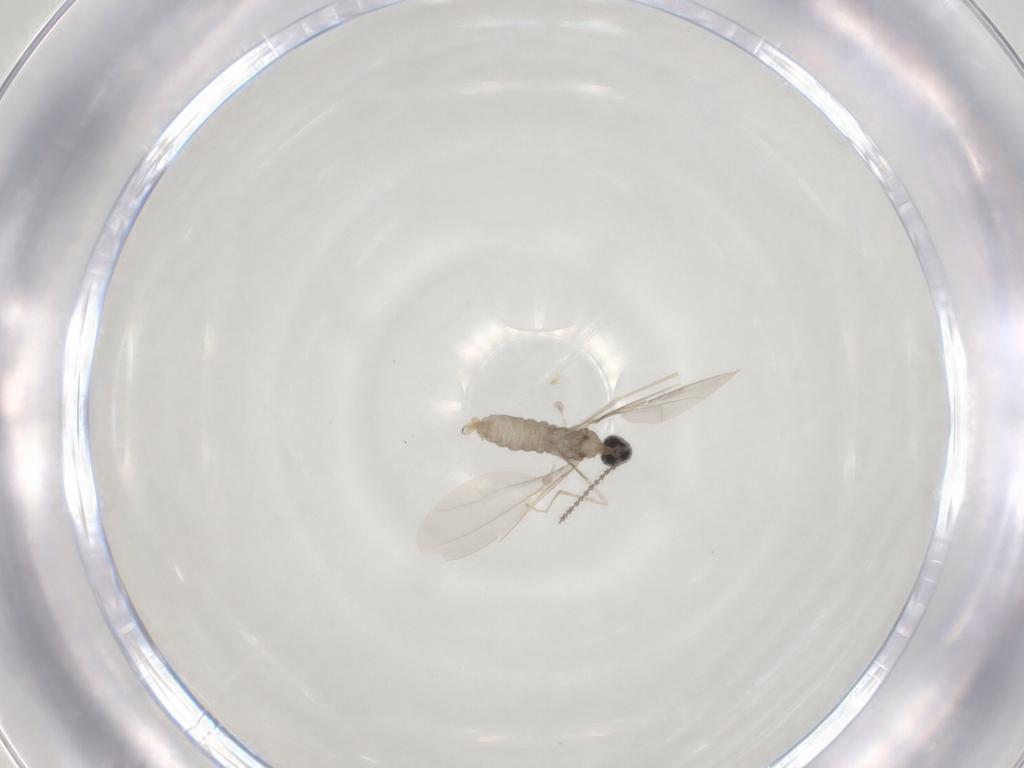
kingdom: Animalia
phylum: Arthropoda
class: Insecta
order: Diptera
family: Cecidomyiidae
